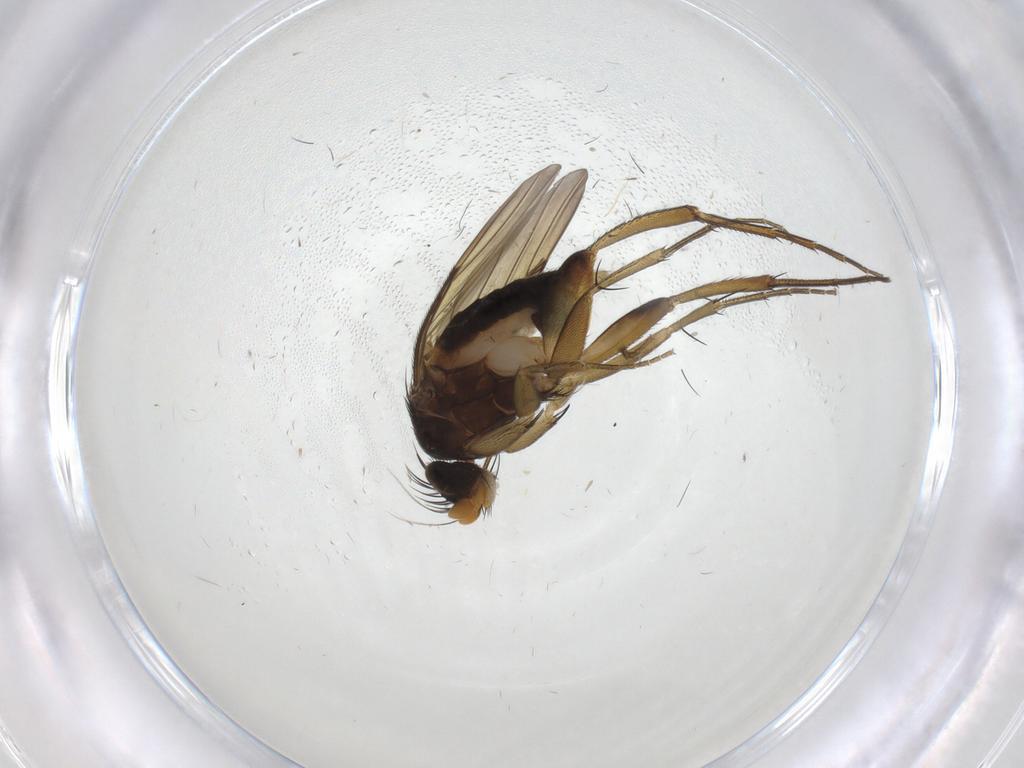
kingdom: Animalia
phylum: Arthropoda
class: Insecta
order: Diptera
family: Phoridae
